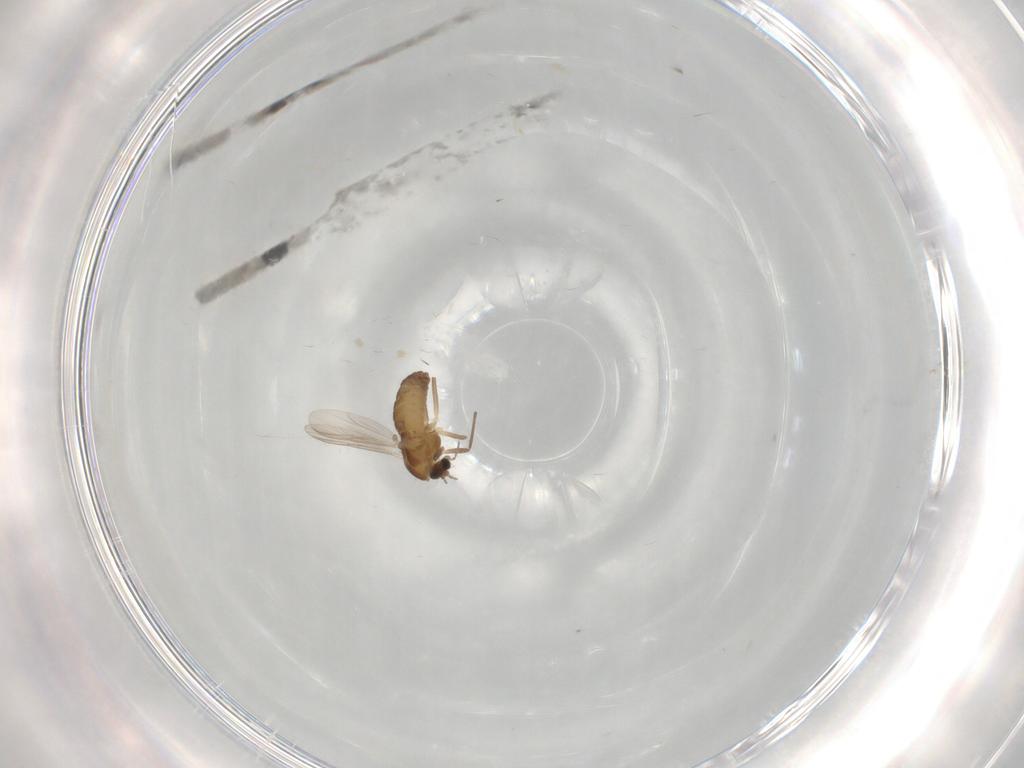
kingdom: Animalia
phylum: Arthropoda
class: Insecta
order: Diptera
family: Chironomidae
